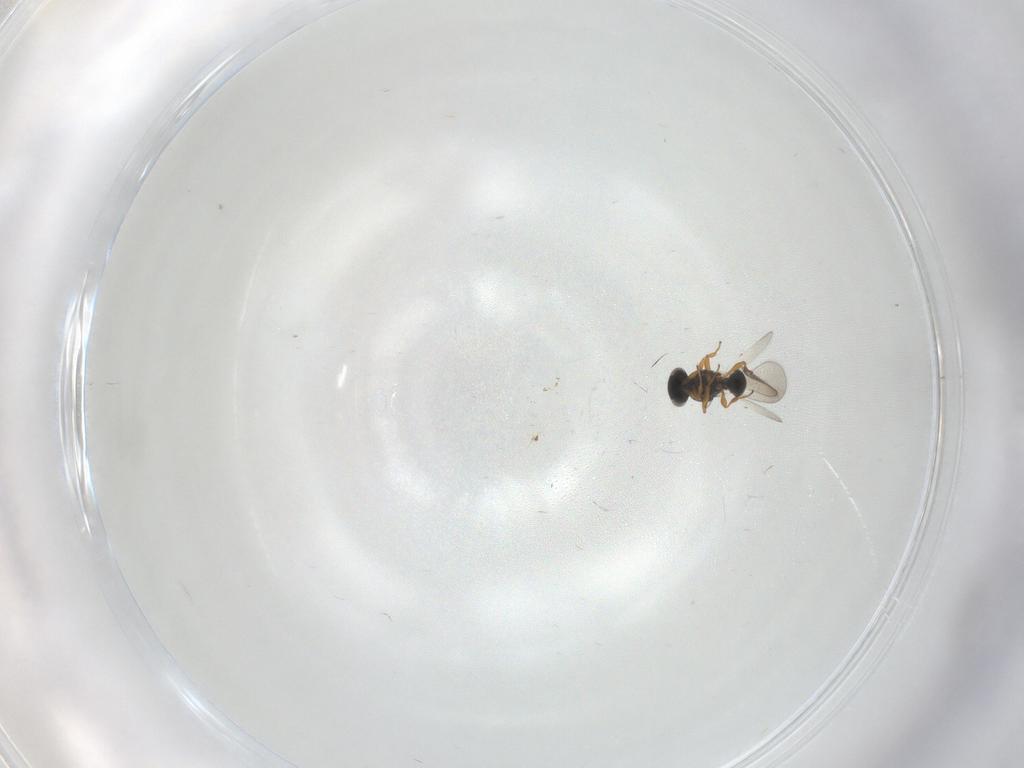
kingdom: Animalia
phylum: Arthropoda
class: Insecta
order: Hymenoptera
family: Platygastridae
